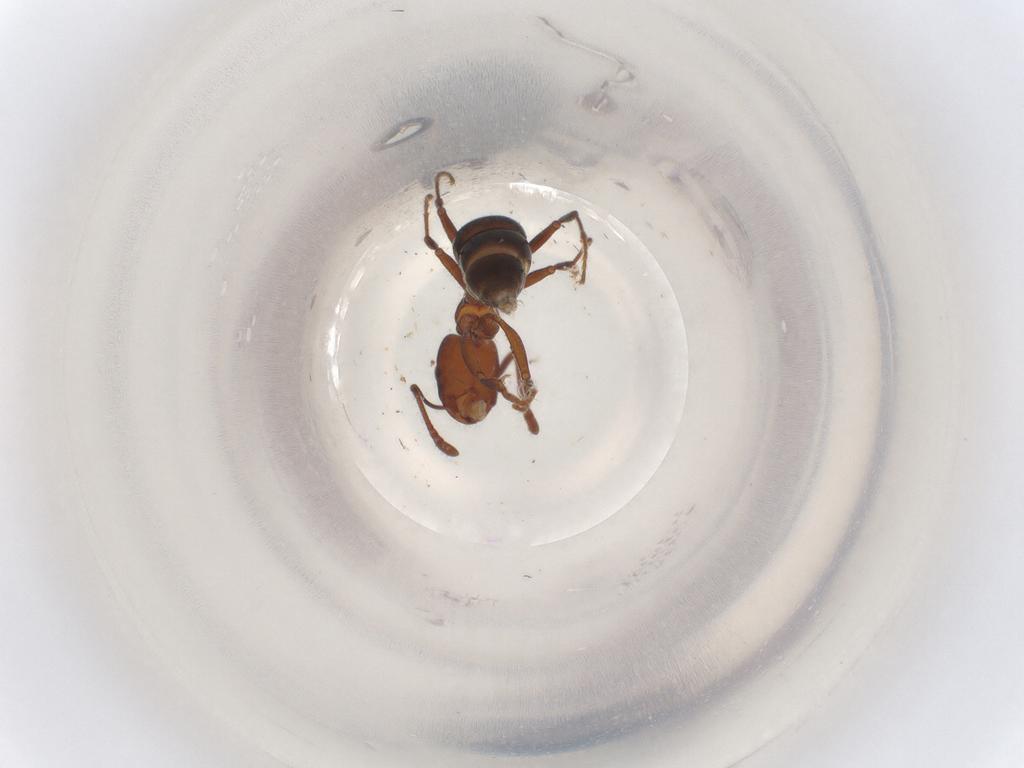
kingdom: Animalia
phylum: Arthropoda
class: Insecta
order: Hymenoptera
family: Formicidae
